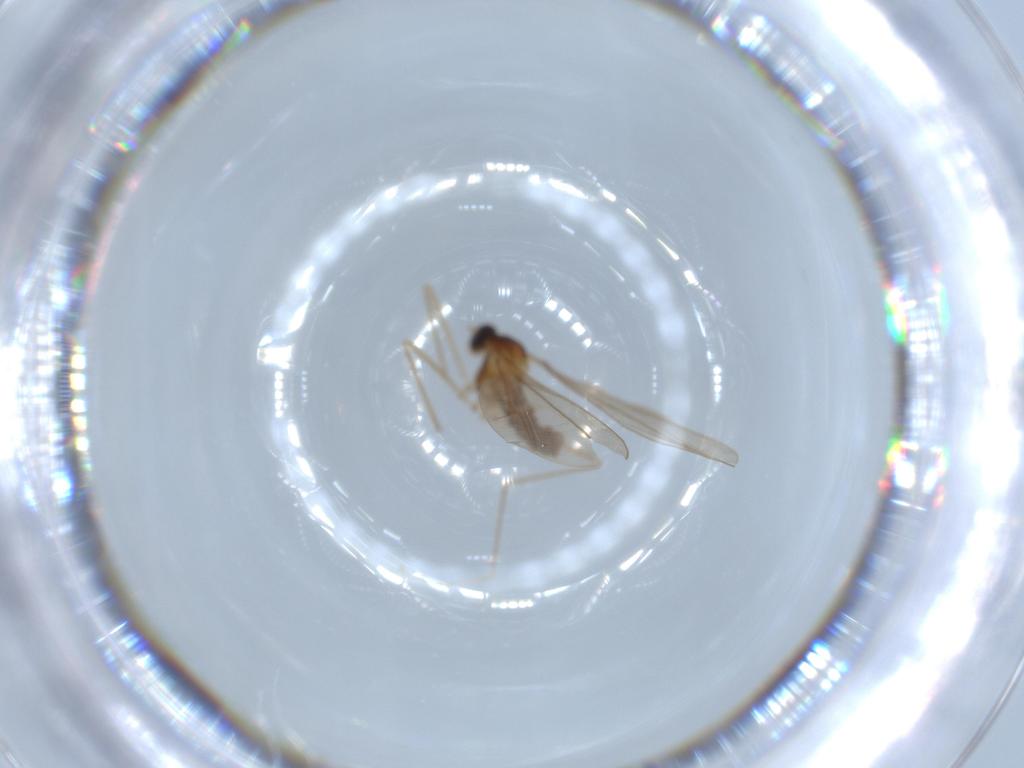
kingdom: Animalia
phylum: Arthropoda
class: Insecta
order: Diptera
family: Cecidomyiidae
